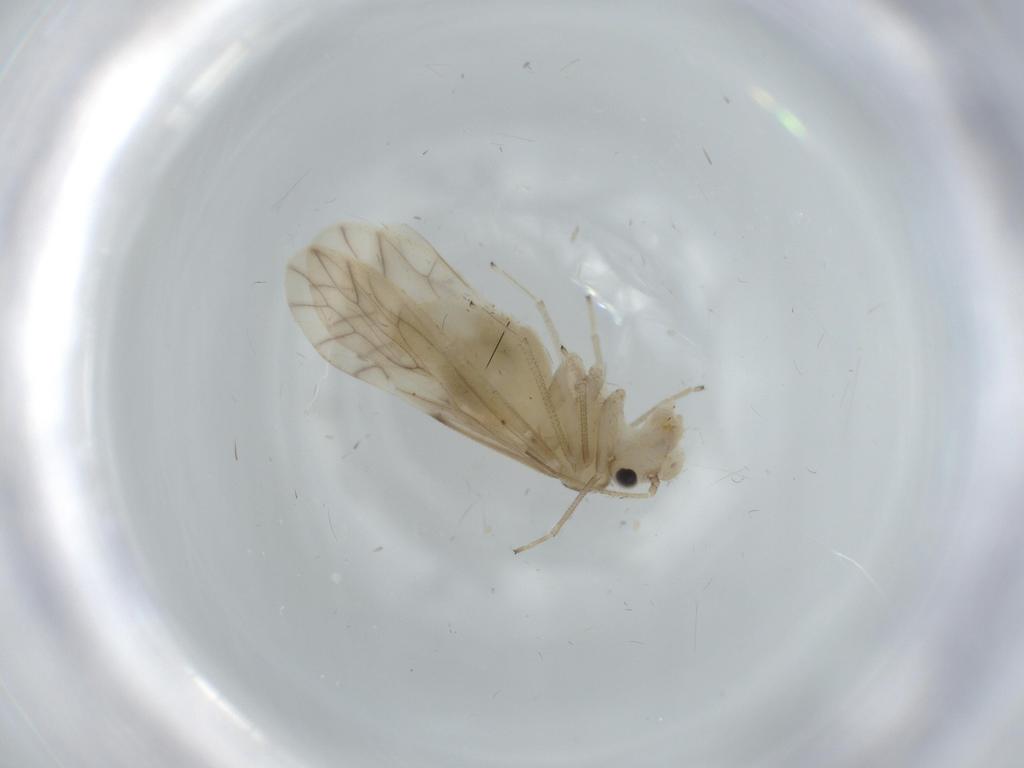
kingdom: Animalia
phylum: Arthropoda
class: Insecta
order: Psocodea
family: Caeciliusidae
